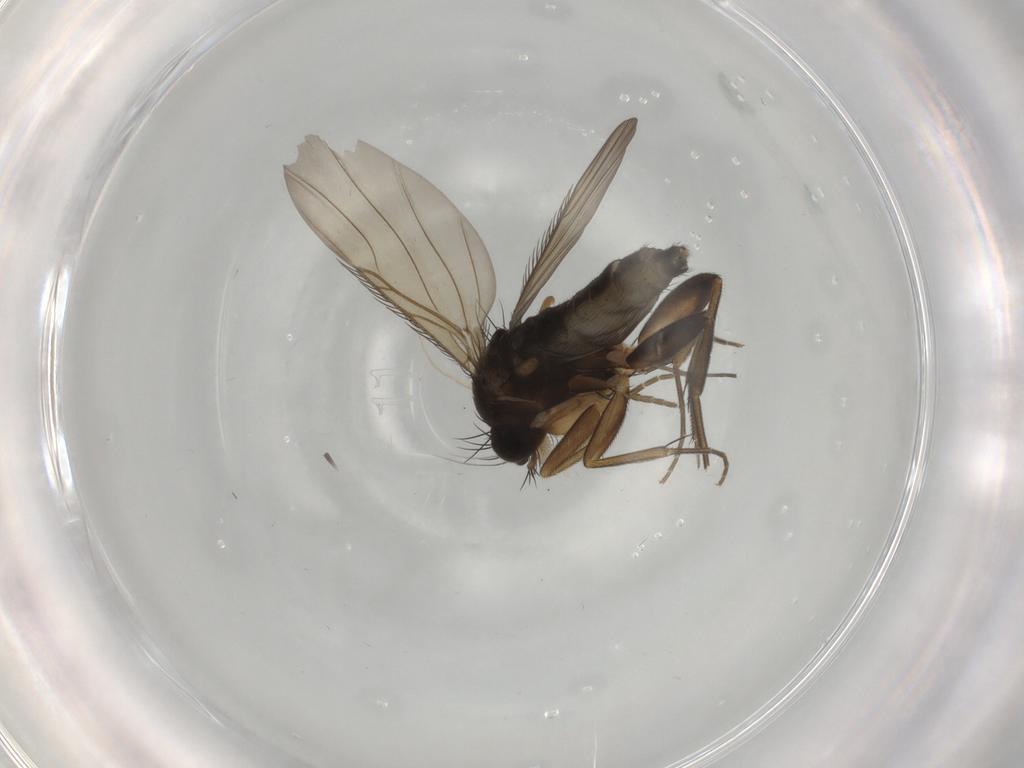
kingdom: Animalia
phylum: Arthropoda
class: Insecta
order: Diptera
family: Phoridae
